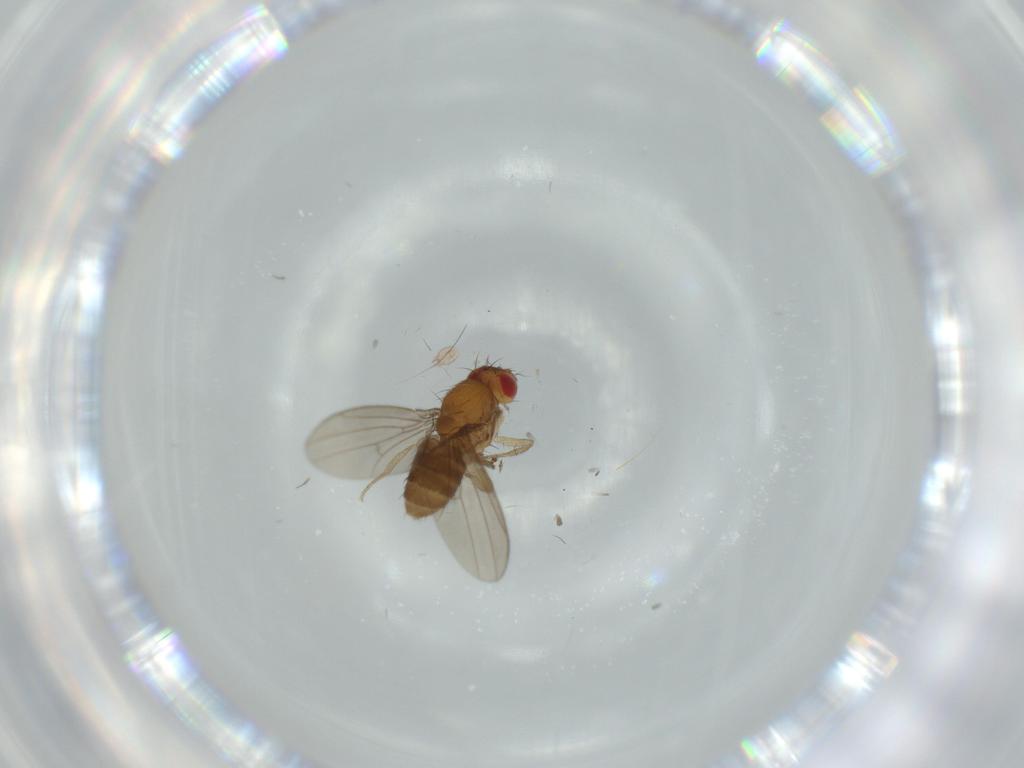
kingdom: Animalia
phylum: Arthropoda
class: Insecta
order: Diptera
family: Drosophilidae
